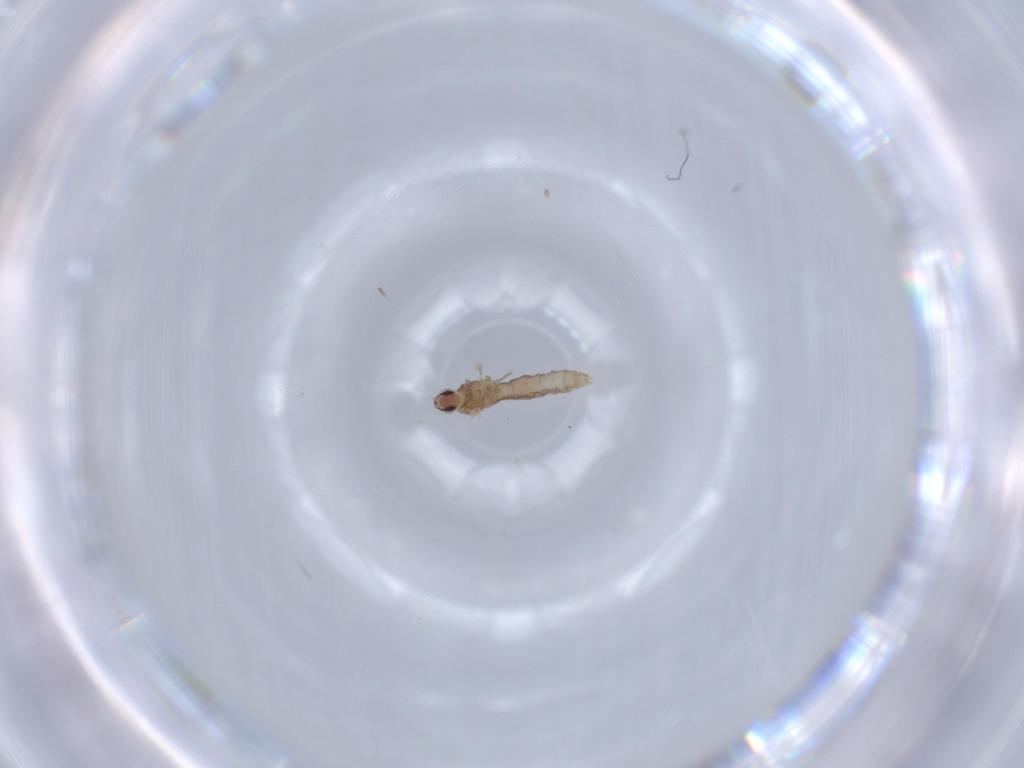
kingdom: Animalia
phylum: Arthropoda
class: Insecta
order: Diptera
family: Cecidomyiidae
